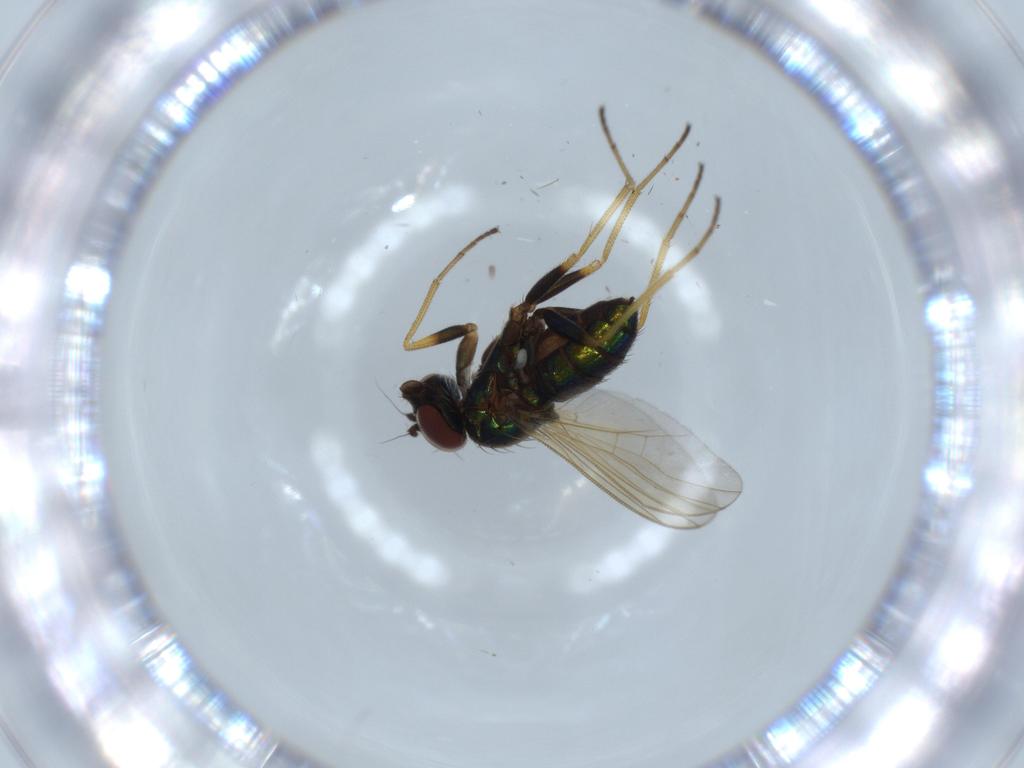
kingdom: Animalia
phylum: Arthropoda
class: Insecta
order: Diptera
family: Dolichopodidae
